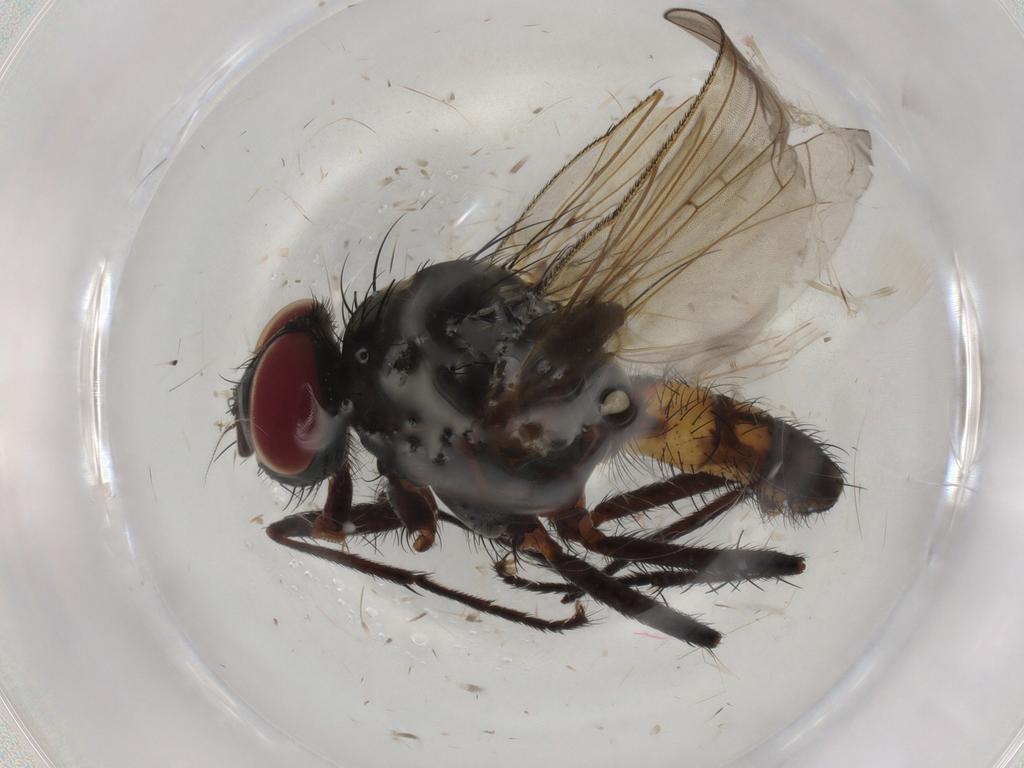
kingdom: Animalia
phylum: Arthropoda
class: Insecta
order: Diptera
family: Anthomyiidae
